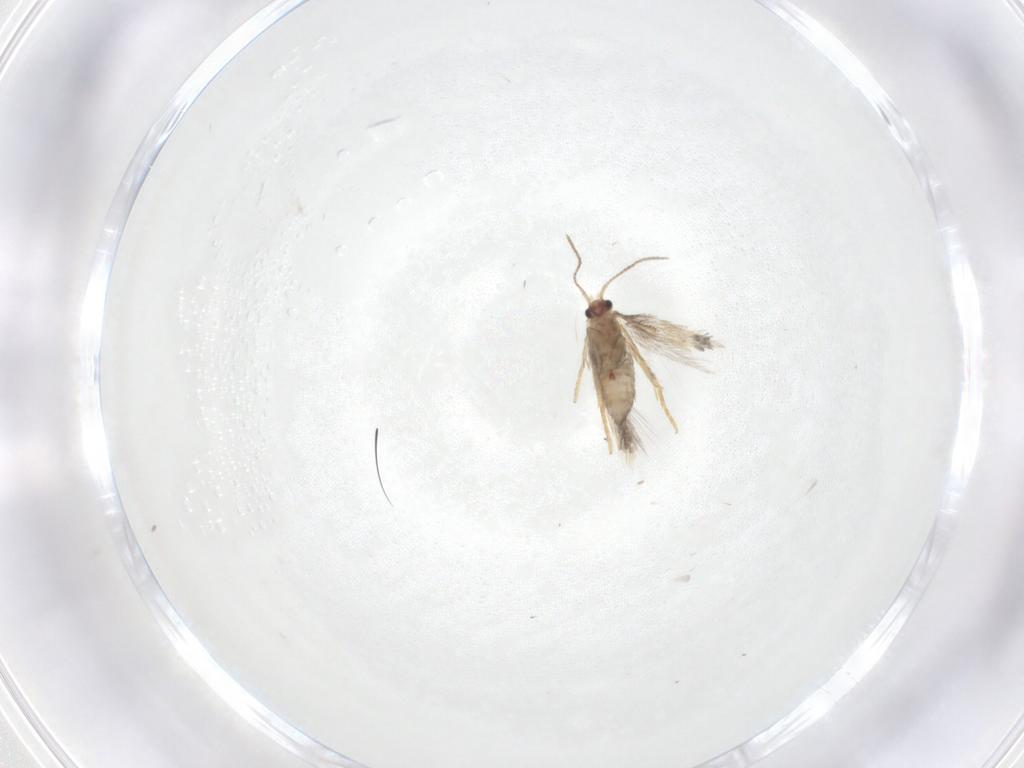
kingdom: Animalia
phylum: Arthropoda
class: Insecta
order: Lepidoptera
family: Nepticulidae
